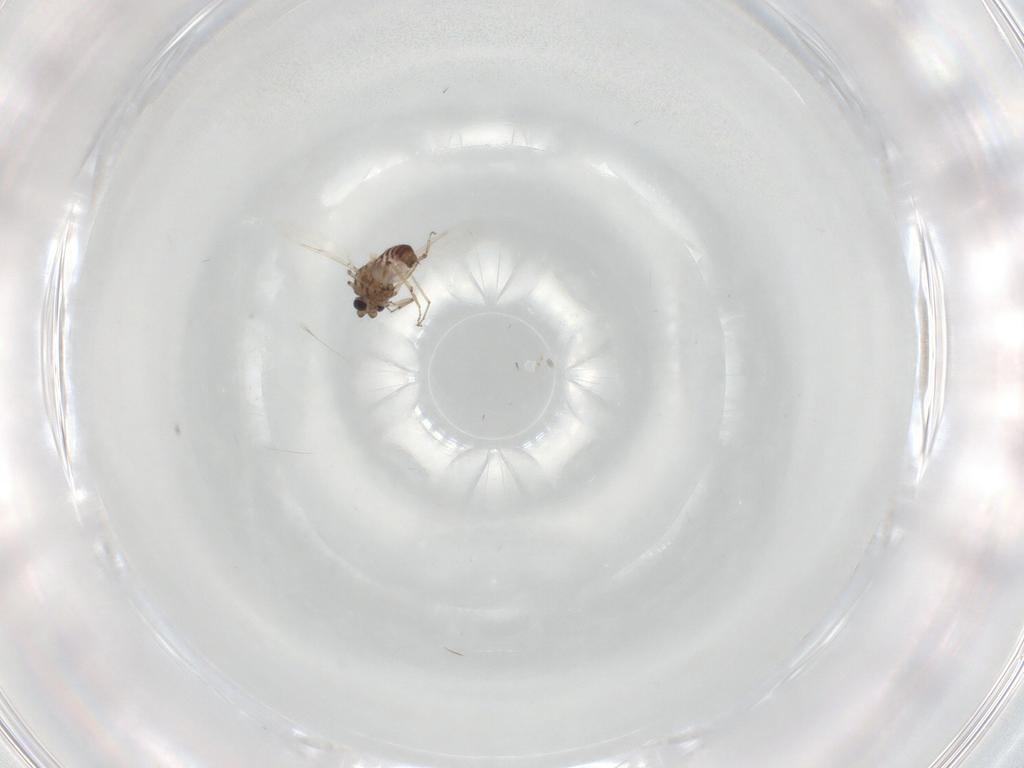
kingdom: Animalia
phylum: Arthropoda
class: Insecta
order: Diptera
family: Ceratopogonidae
